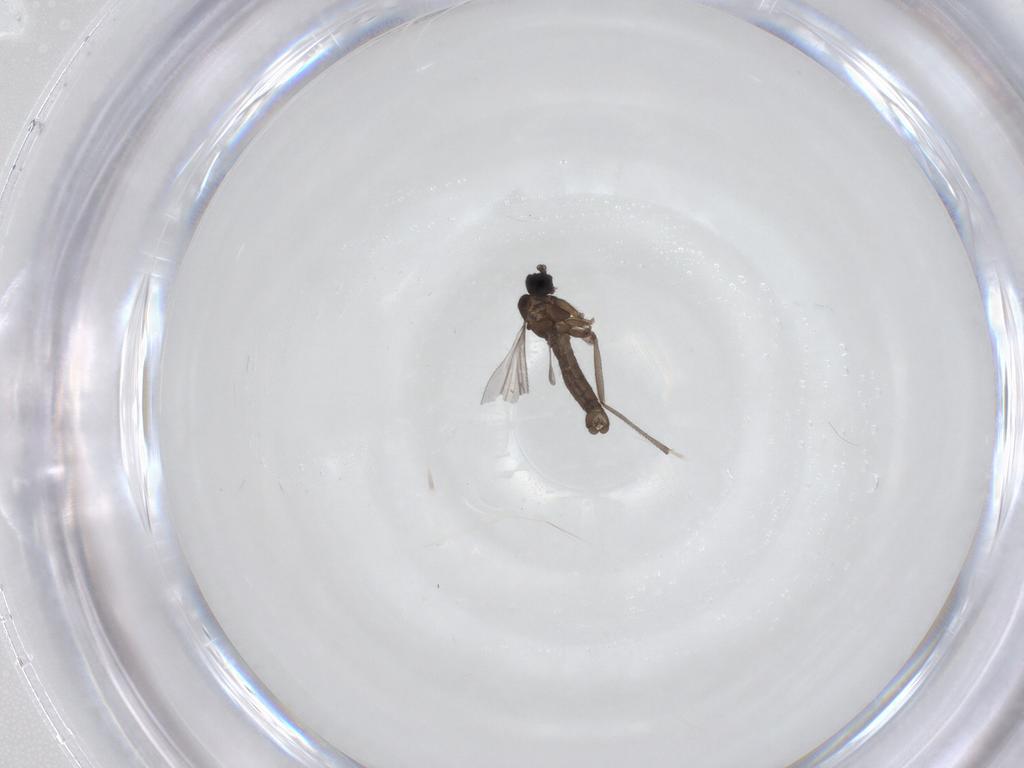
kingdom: Animalia
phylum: Arthropoda
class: Insecta
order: Diptera
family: Sciaridae
